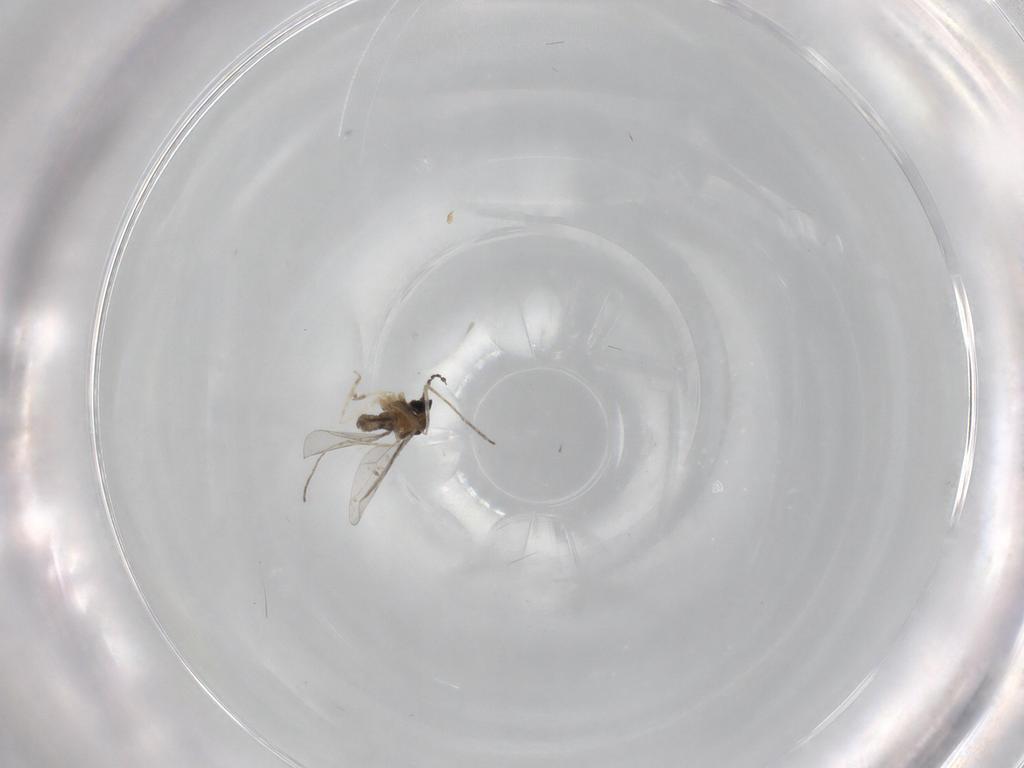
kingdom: Animalia
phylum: Arthropoda
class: Insecta
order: Diptera
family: Cecidomyiidae
